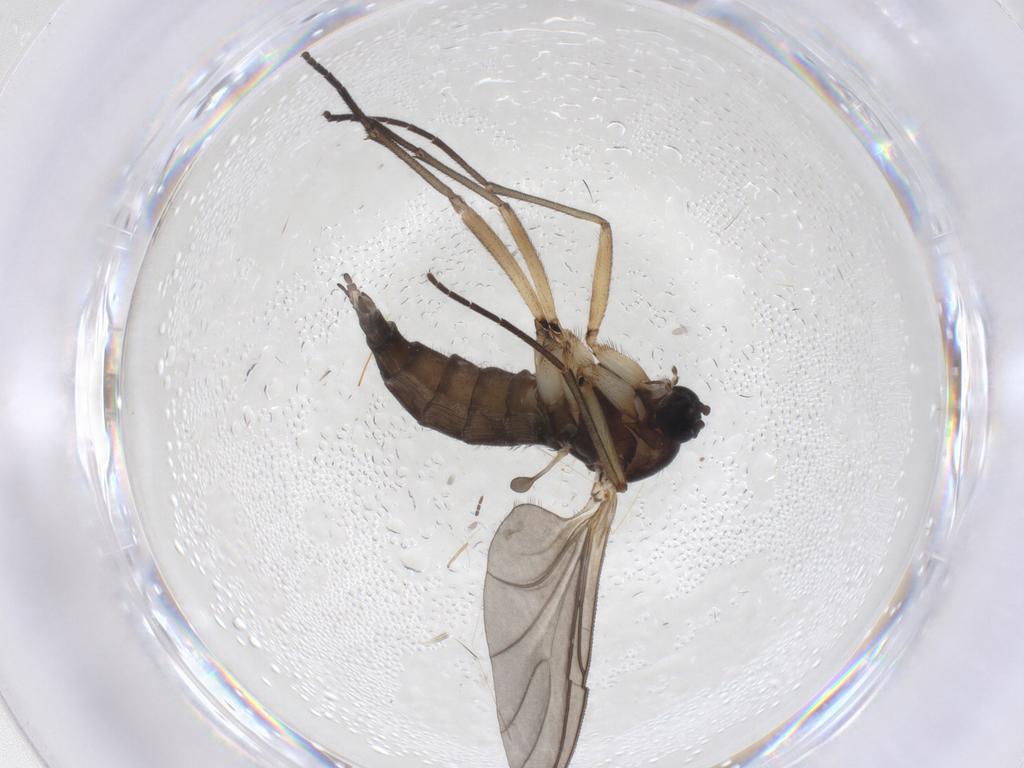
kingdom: Animalia
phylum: Arthropoda
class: Insecta
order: Diptera
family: Sciaridae
